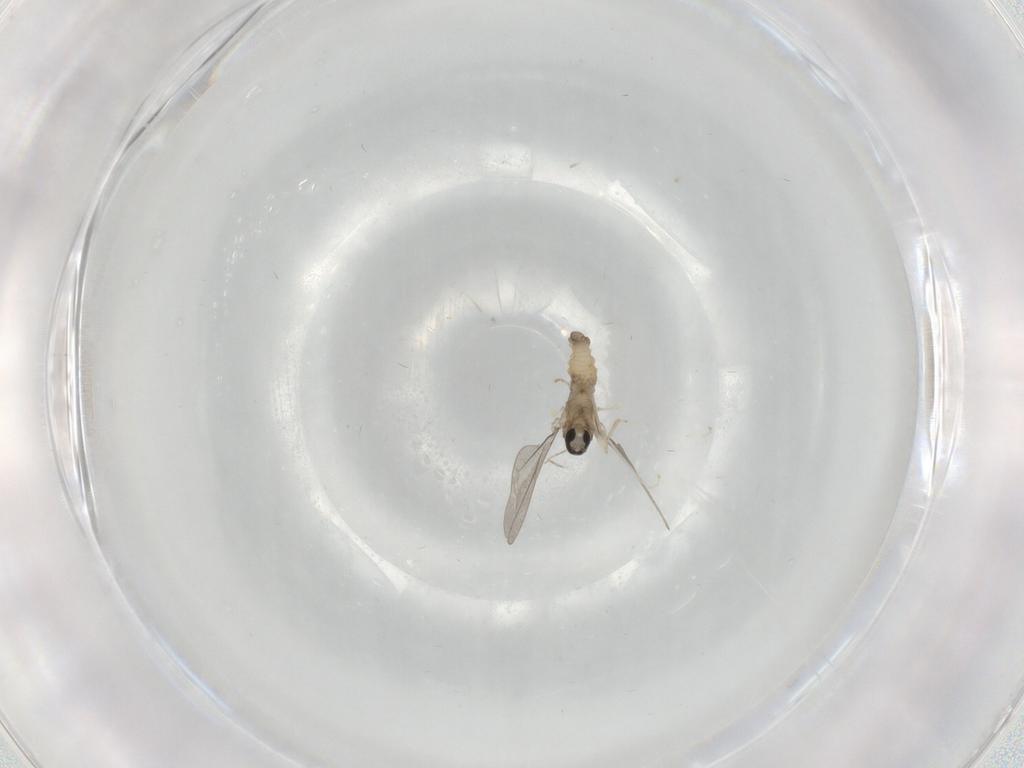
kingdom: Animalia
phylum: Arthropoda
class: Insecta
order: Diptera
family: Cecidomyiidae
